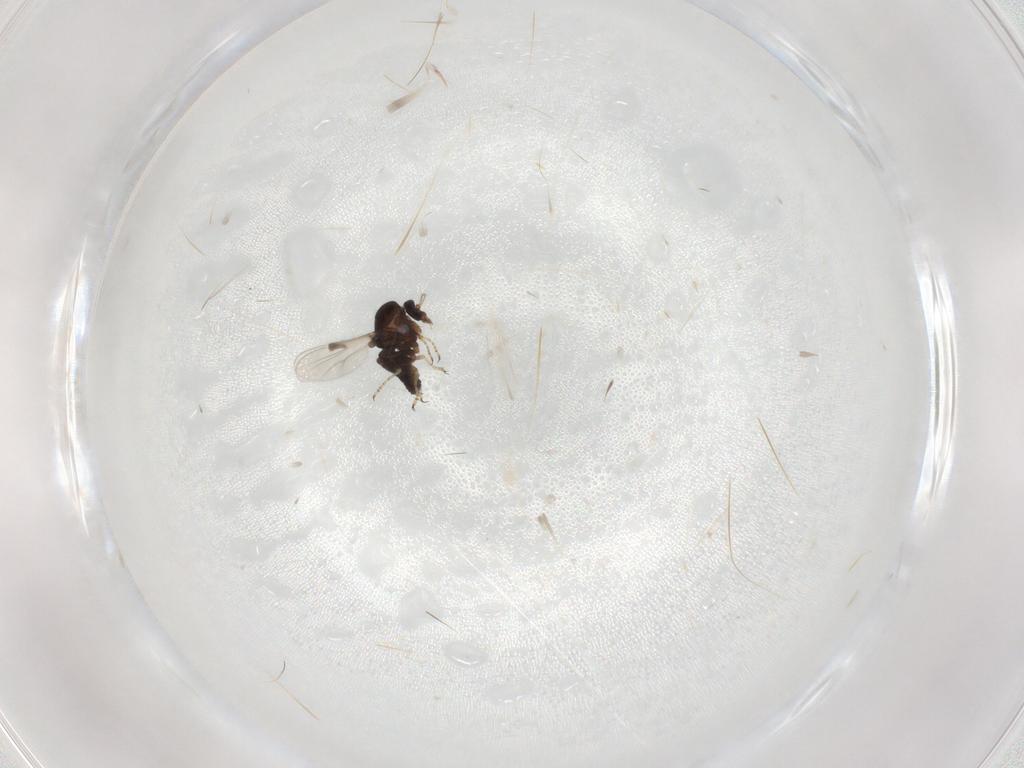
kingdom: Animalia
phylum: Arthropoda
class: Insecta
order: Diptera
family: Ceratopogonidae
